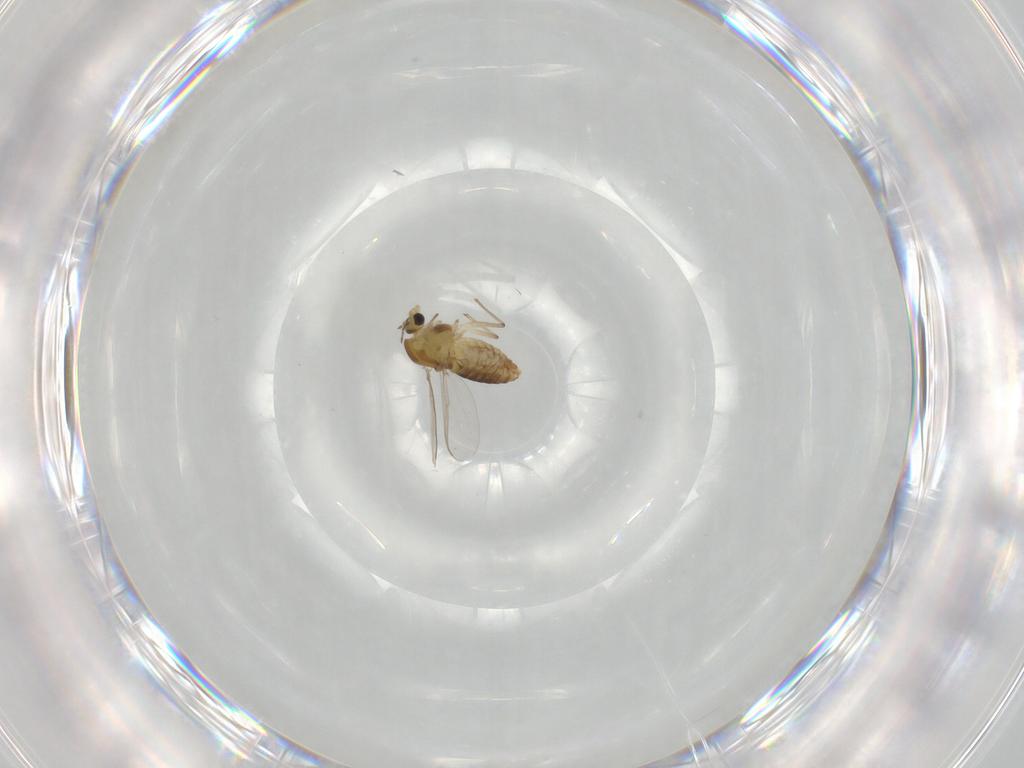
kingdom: Animalia
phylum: Arthropoda
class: Insecta
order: Diptera
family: Chironomidae
